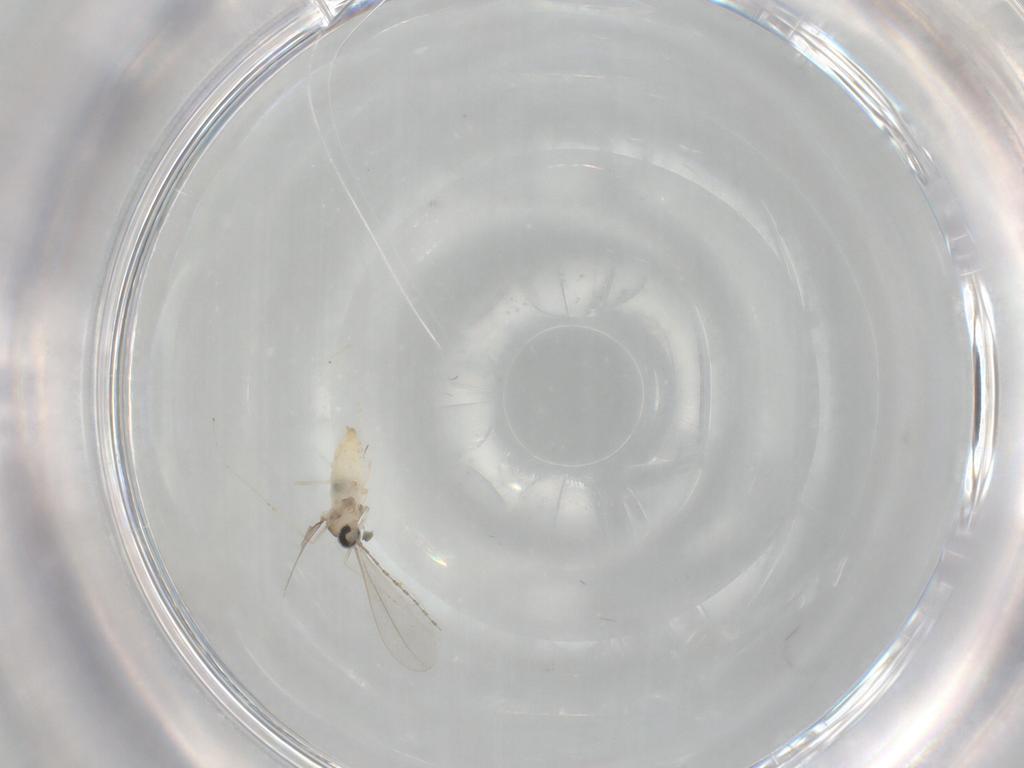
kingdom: Animalia
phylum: Arthropoda
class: Insecta
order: Diptera
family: Cecidomyiidae
